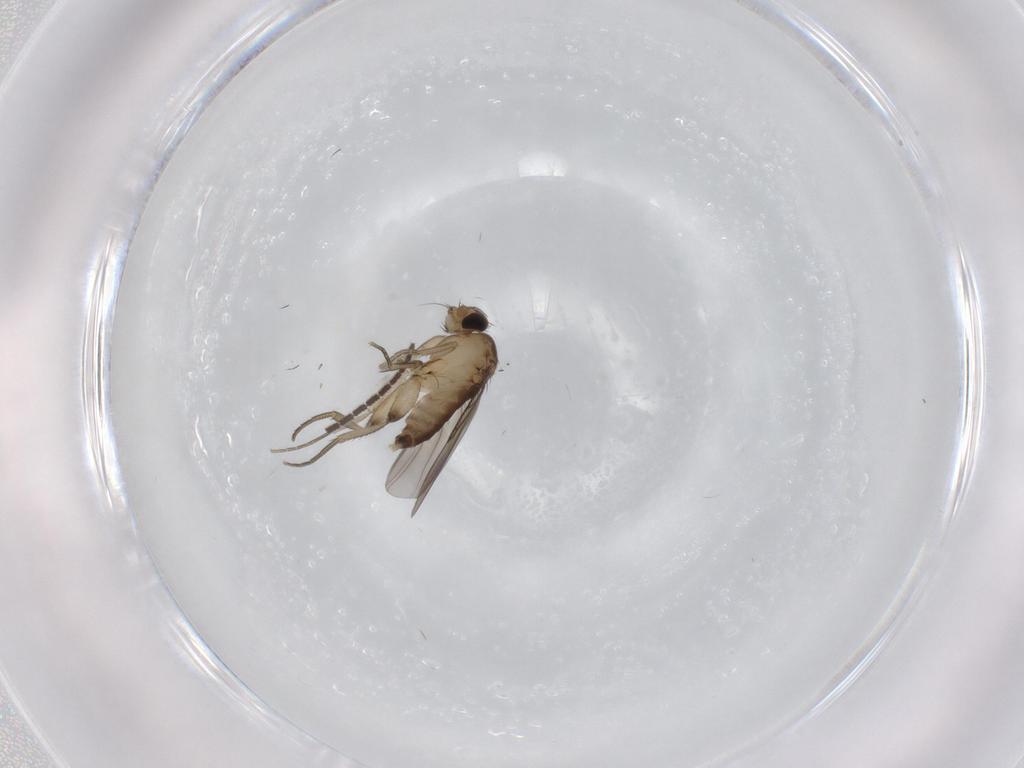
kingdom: Animalia
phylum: Arthropoda
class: Insecta
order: Diptera
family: Phoridae
